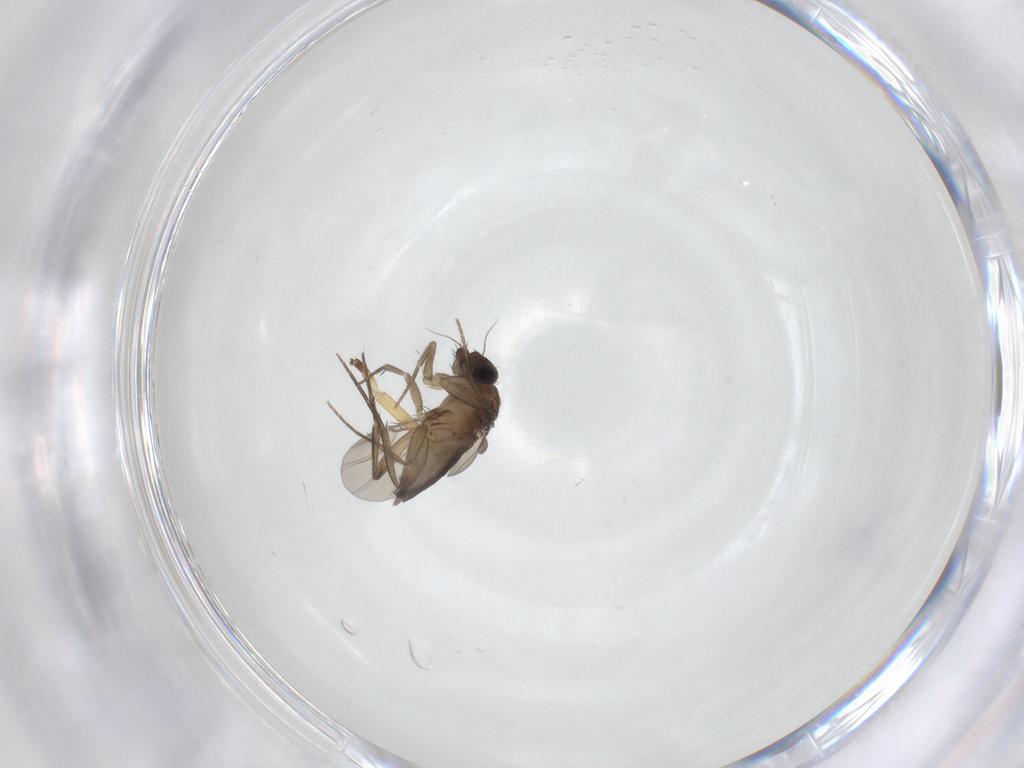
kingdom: Animalia
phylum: Arthropoda
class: Insecta
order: Diptera
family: Phoridae
